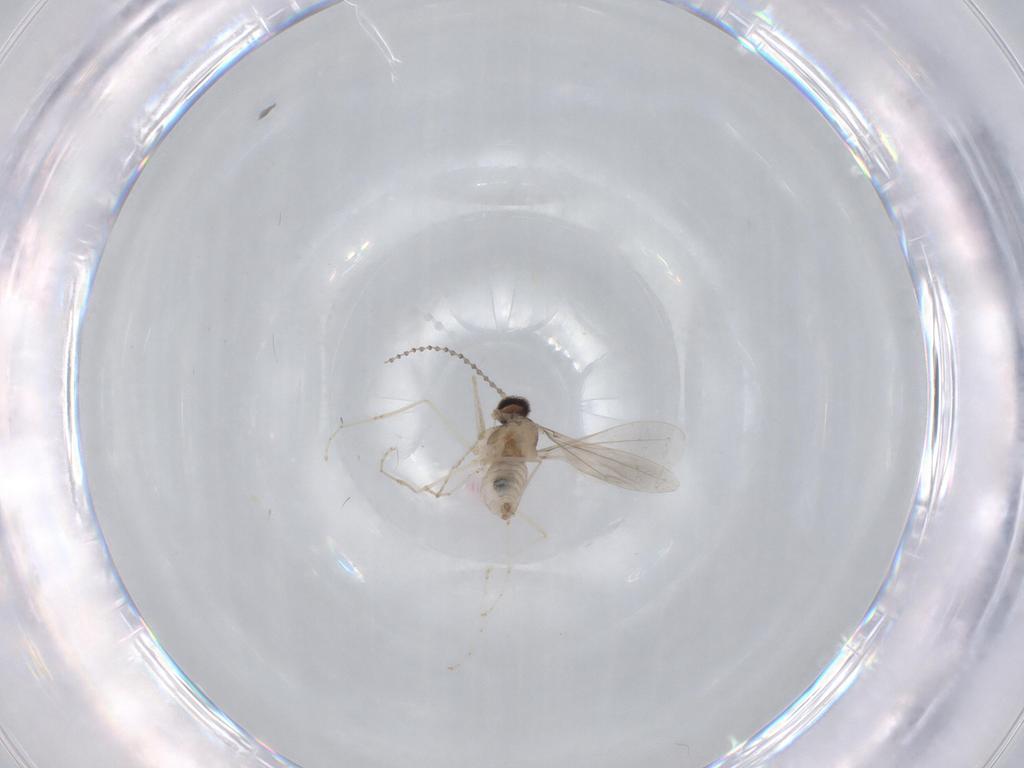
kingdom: Animalia
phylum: Arthropoda
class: Insecta
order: Diptera
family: Cecidomyiidae
